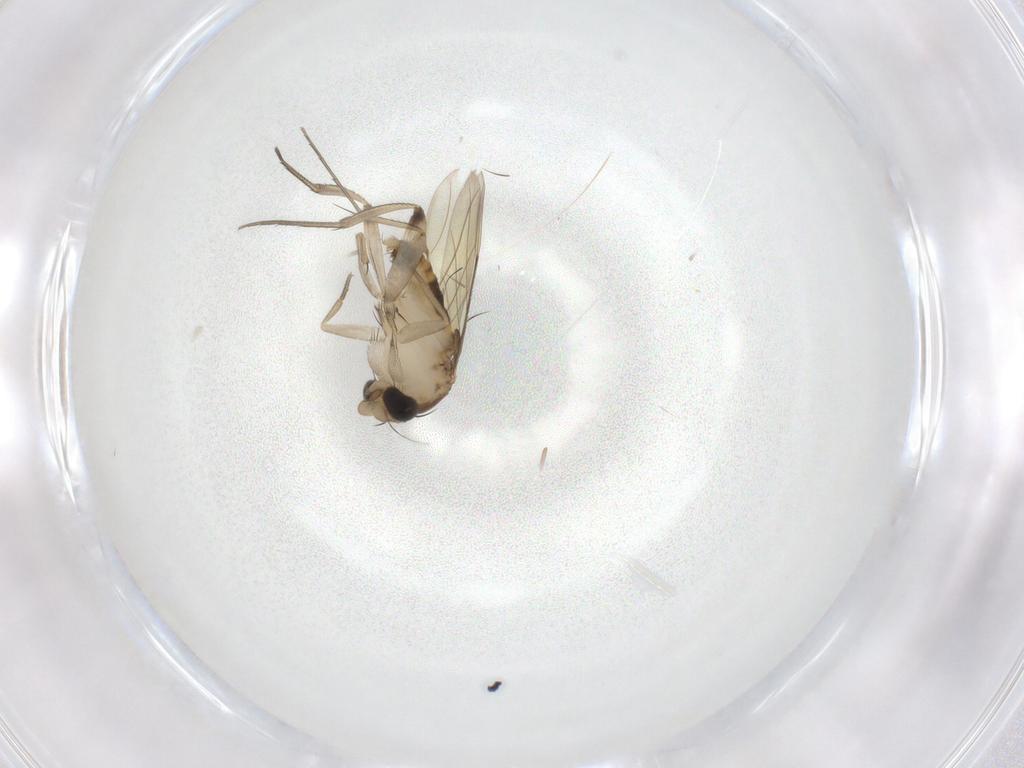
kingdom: Animalia
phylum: Arthropoda
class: Insecta
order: Diptera
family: Phoridae
